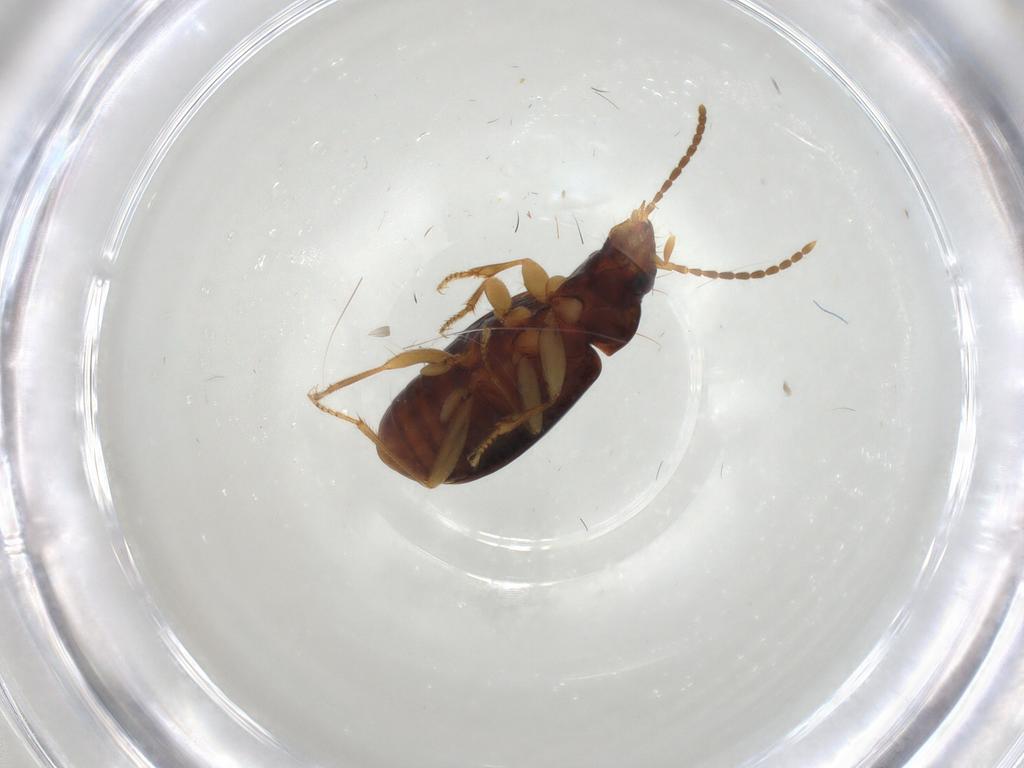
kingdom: Animalia
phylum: Arthropoda
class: Insecta
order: Coleoptera
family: Carabidae
